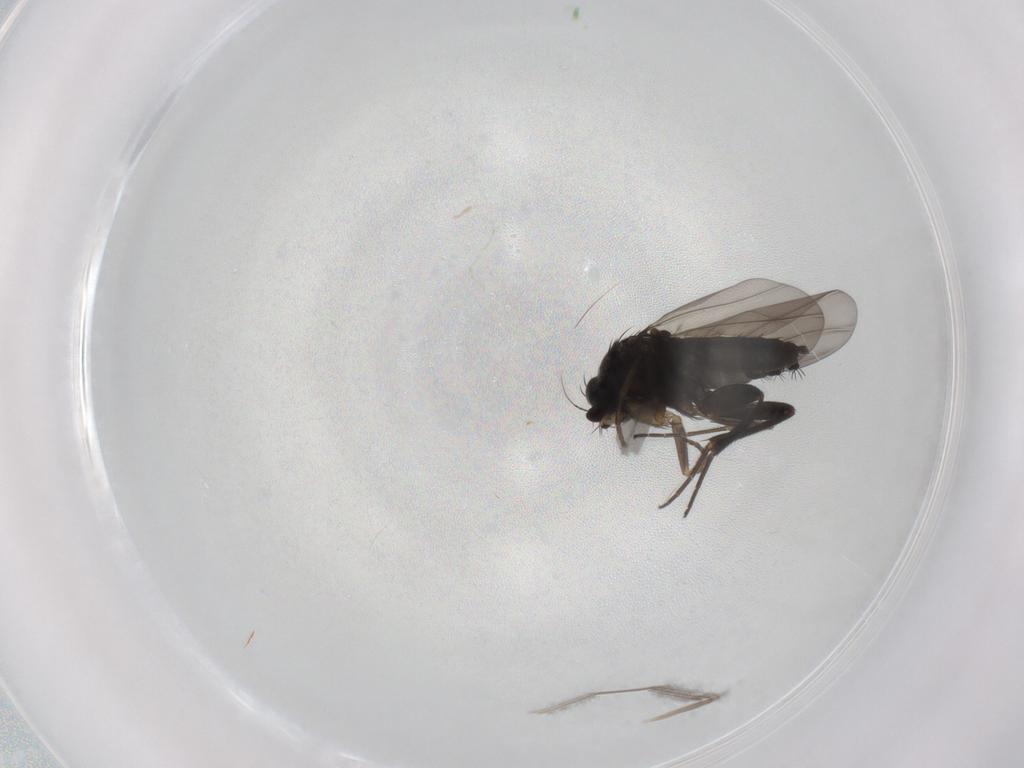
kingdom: Animalia
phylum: Arthropoda
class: Insecta
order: Diptera
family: Phoridae
